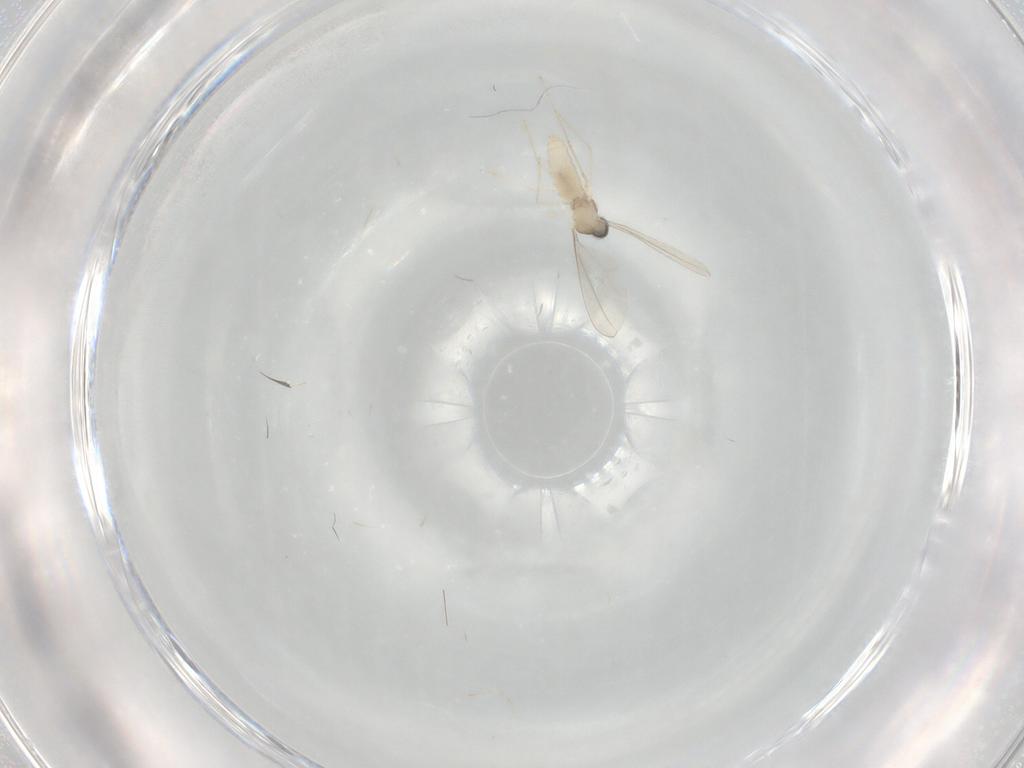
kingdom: Animalia
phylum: Arthropoda
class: Insecta
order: Diptera
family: Cecidomyiidae
